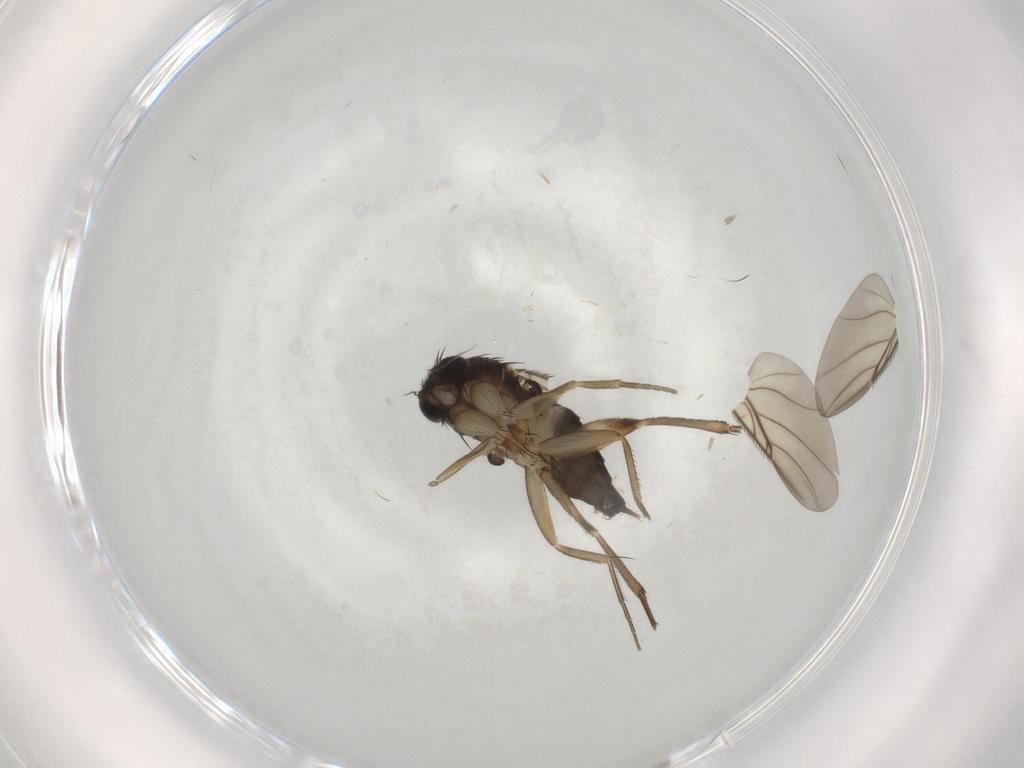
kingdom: Animalia
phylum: Arthropoda
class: Insecta
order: Diptera
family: Phoridae
